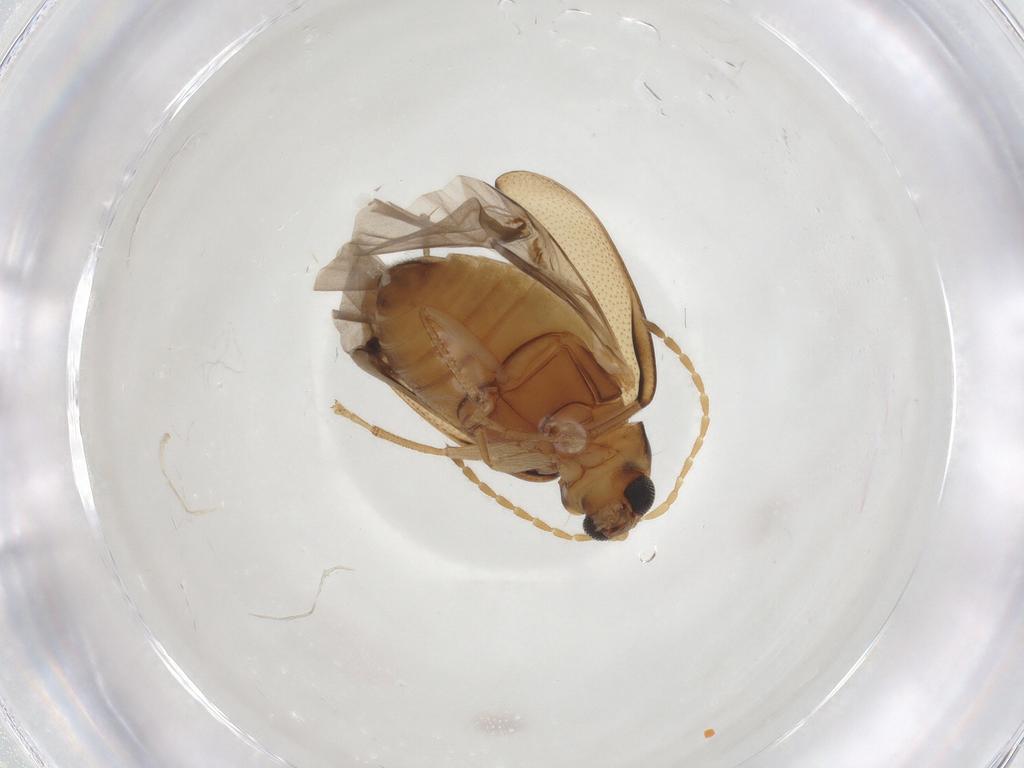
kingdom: Animalia
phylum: Arthropoda
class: Insecta
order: Coleoptera
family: Chrysomelidae
